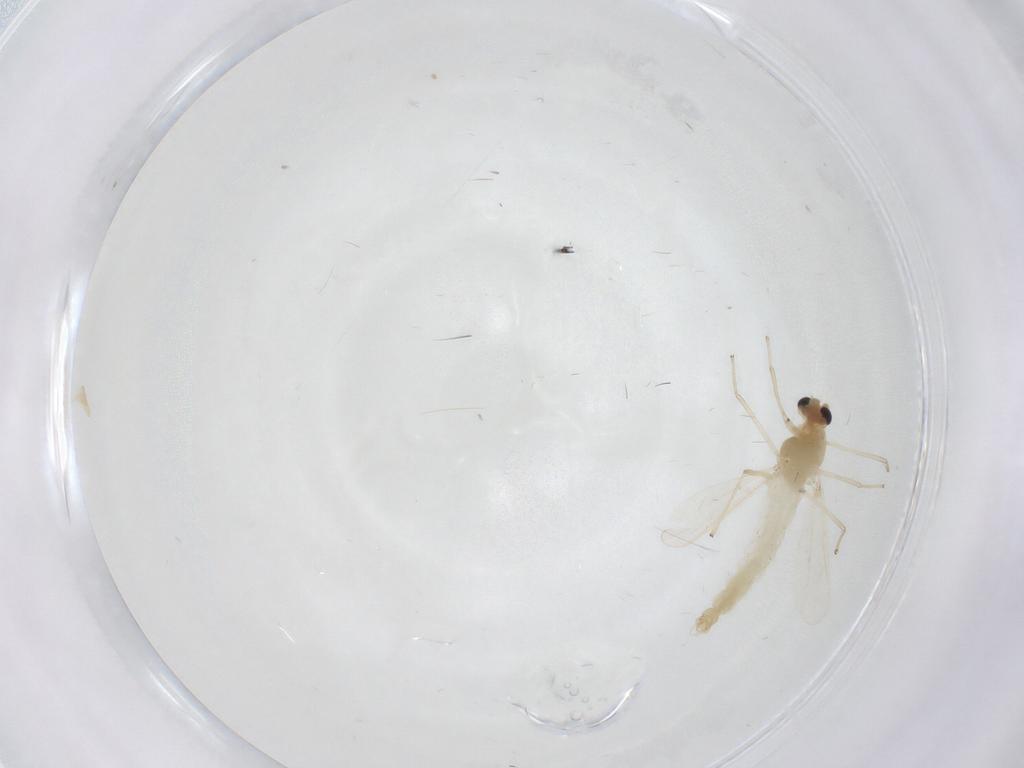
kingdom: Animalia
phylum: Arthropoda
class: Insecta
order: Diptera
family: Chironomidae
